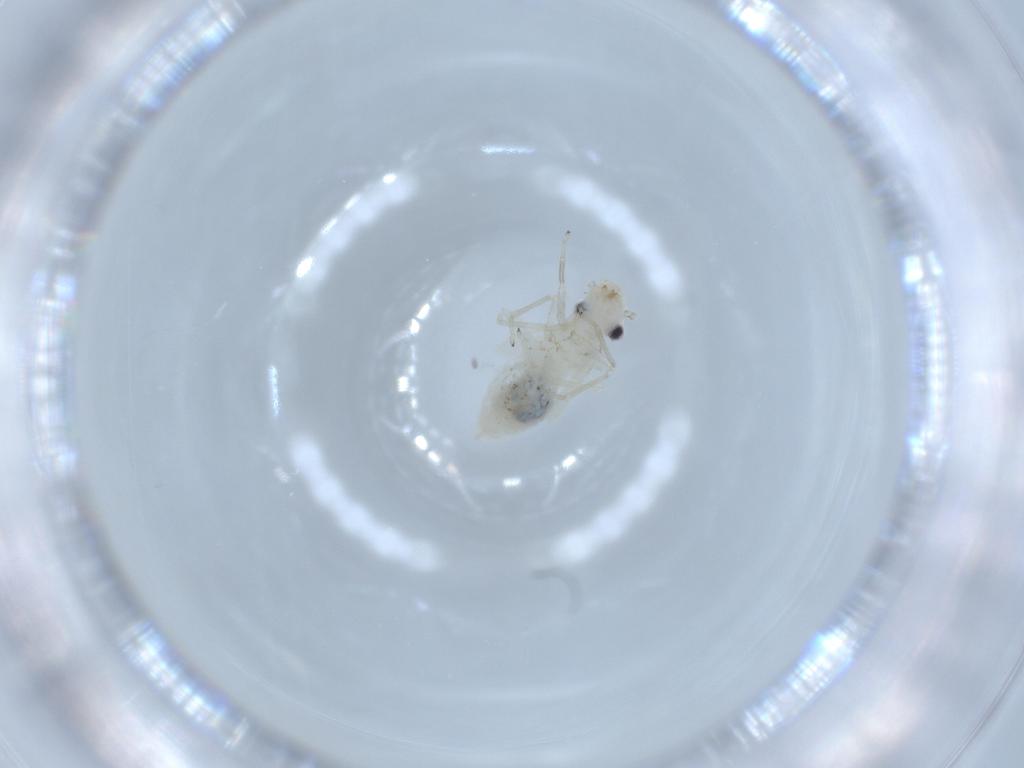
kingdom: Animalia
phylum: Arthropoda
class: Insecta
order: Psocodea
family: Caeciliusidae
